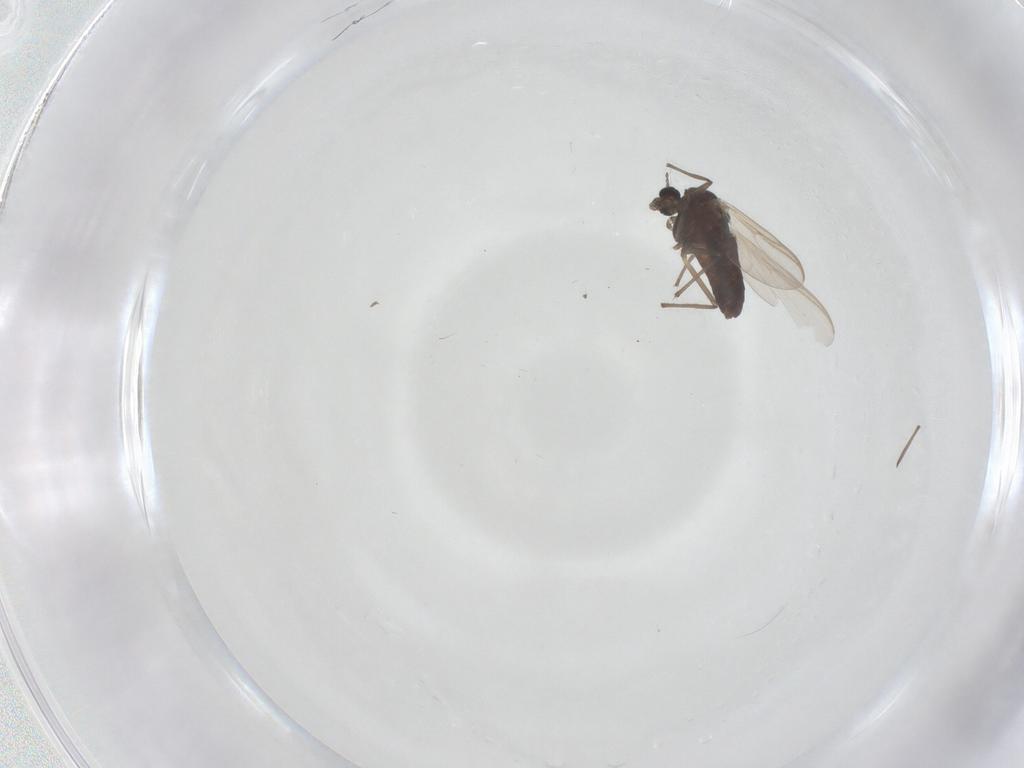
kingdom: Animalia
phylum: Arthropoda
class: Insecta
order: Diptera
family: Chironomidae
